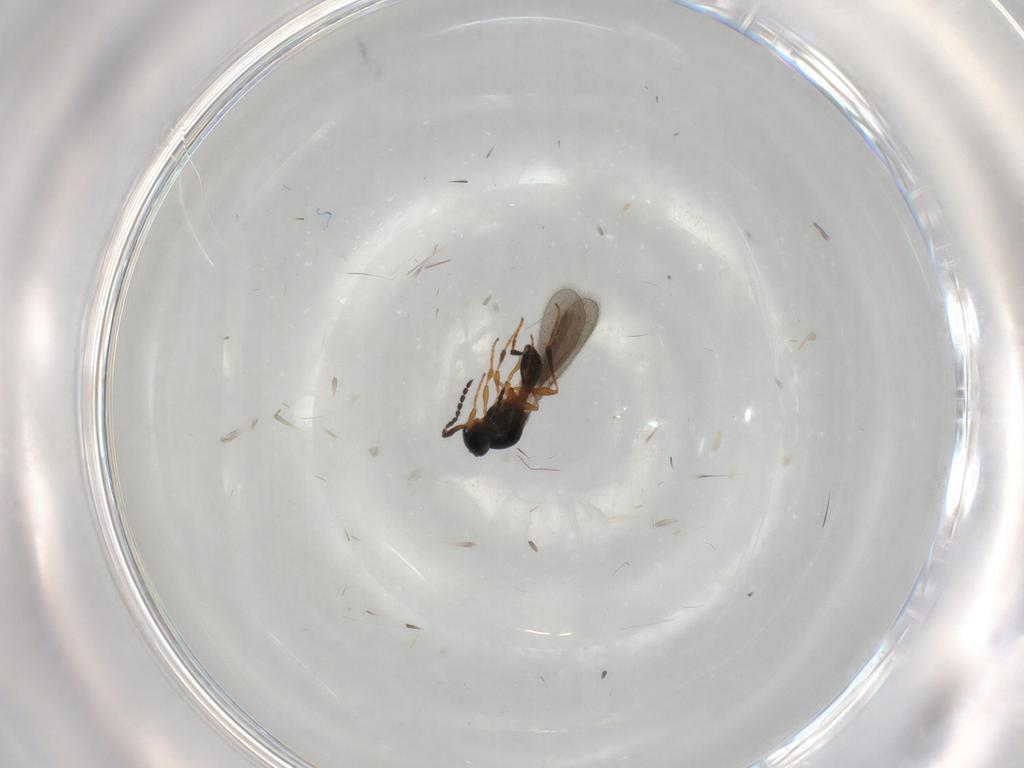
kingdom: Animalia
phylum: Arthropoda
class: Insecta
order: Hymenoptera
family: Platygastridae
